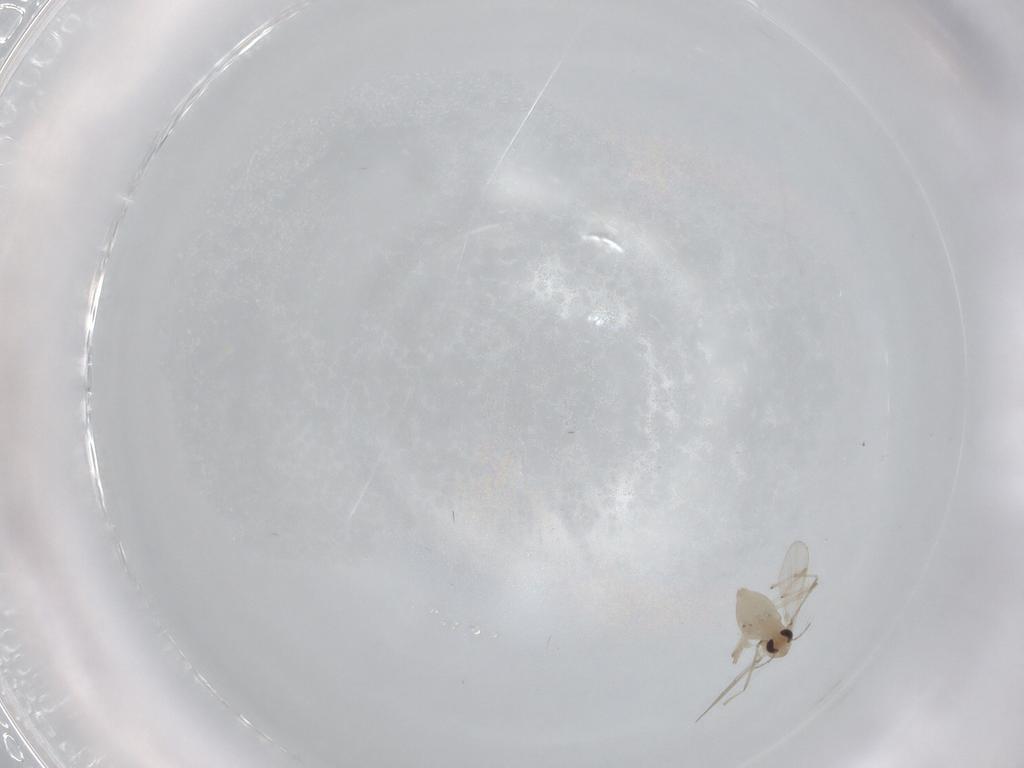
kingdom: Animalia
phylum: Arthropoda
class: Insecta
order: Diptera
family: Chironomidae
